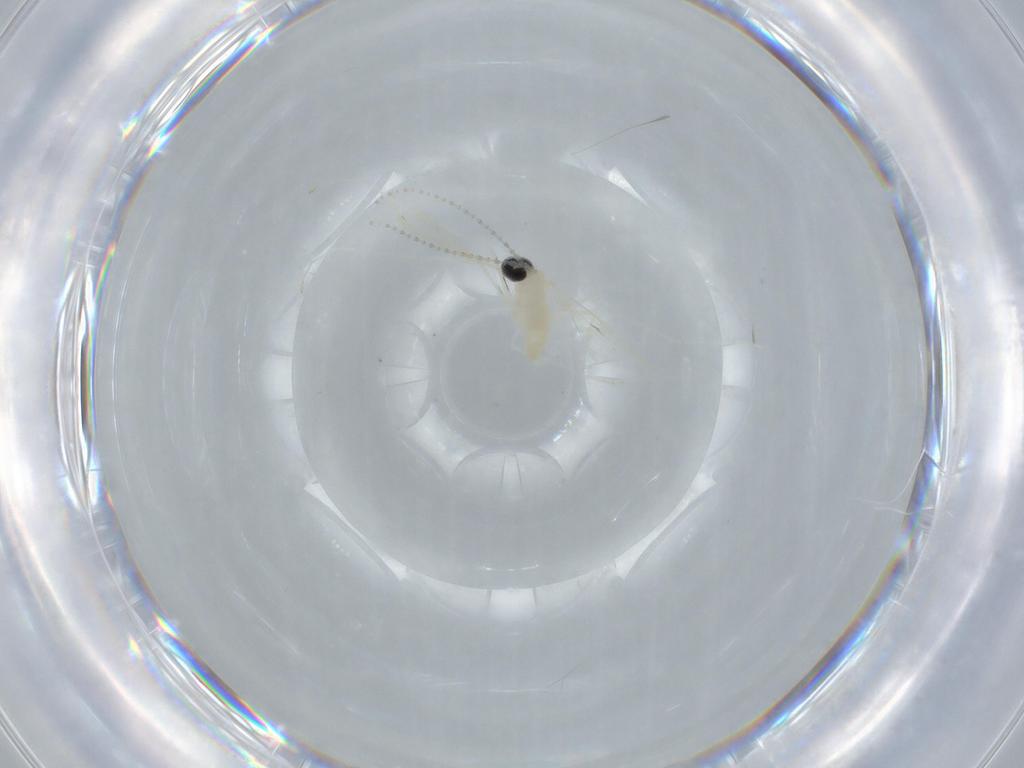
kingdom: Animalia
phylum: Arthropoda
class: Insecta
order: Diptera
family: Cecidomyiidae
